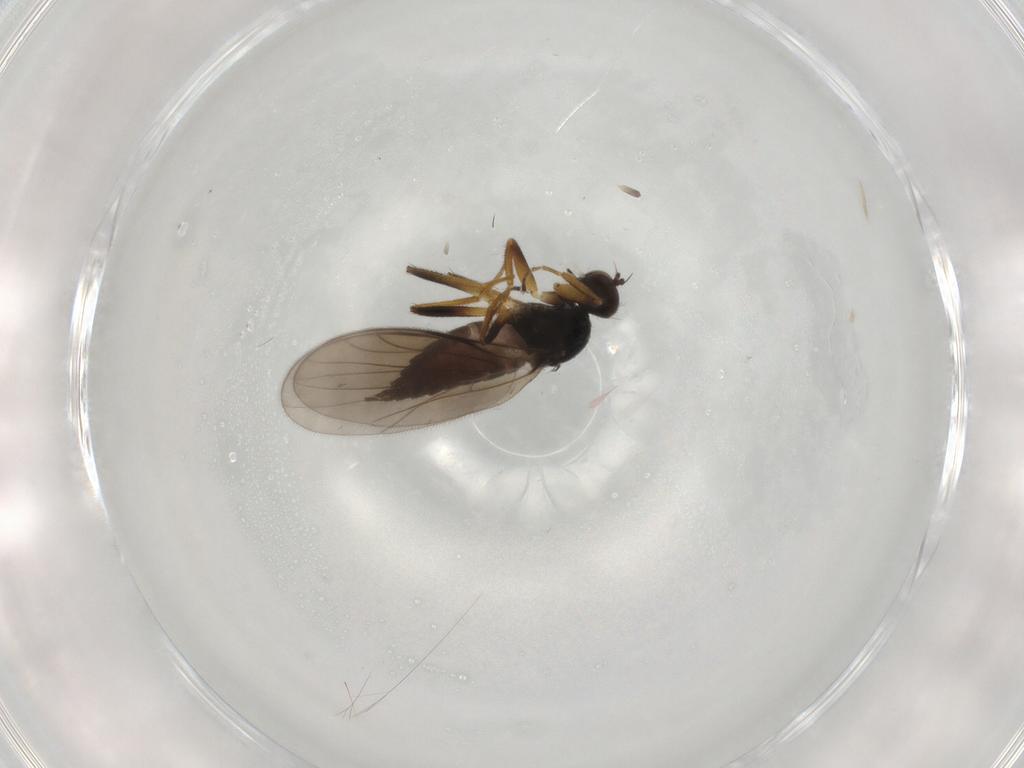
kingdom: Animalia
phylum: Arthropoda
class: Insecta
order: Diptera
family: Hybotidae
